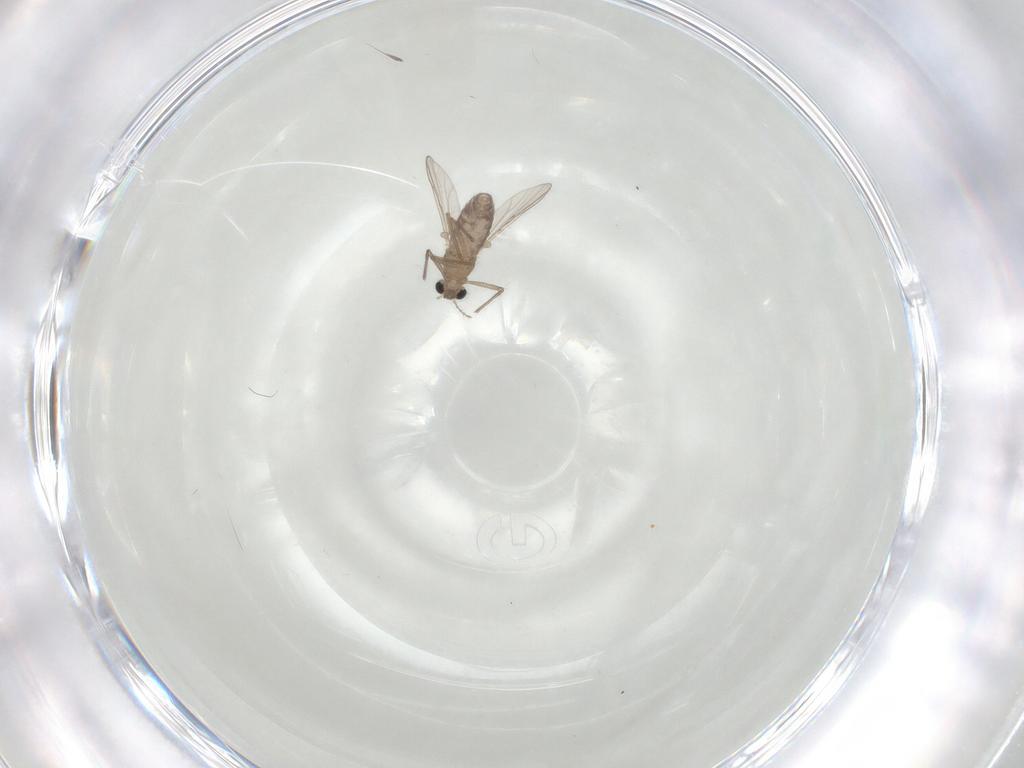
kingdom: Animalia
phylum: Arthropoda
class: Insecta
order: Diptera
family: Chironomidae
